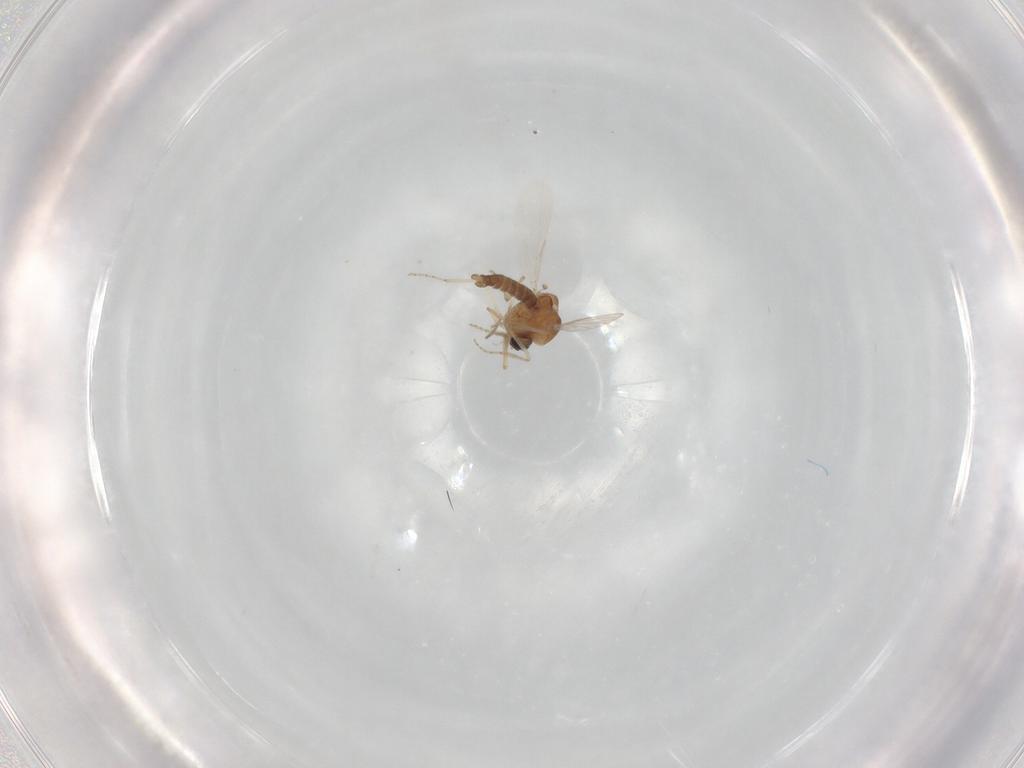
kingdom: Animalia
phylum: Arthropoda
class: Insecta
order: Diptera
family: Ceratopogonidae
